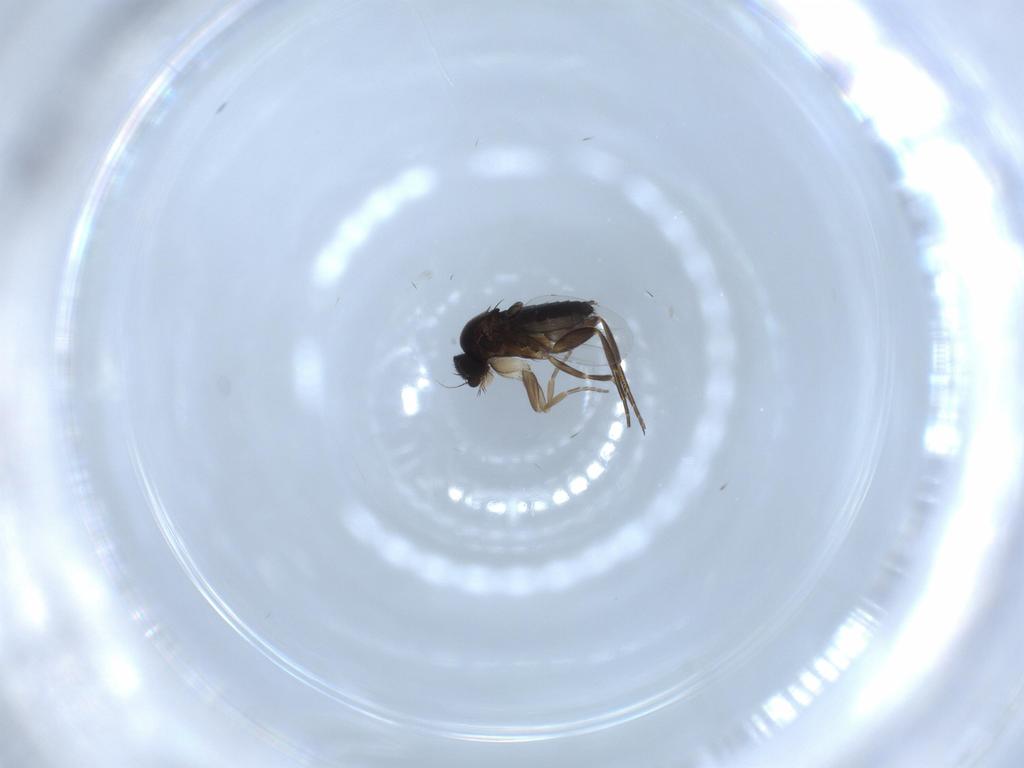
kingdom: Animalia
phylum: Arthropoda
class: Insecta
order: Diptera
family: Phoridae
